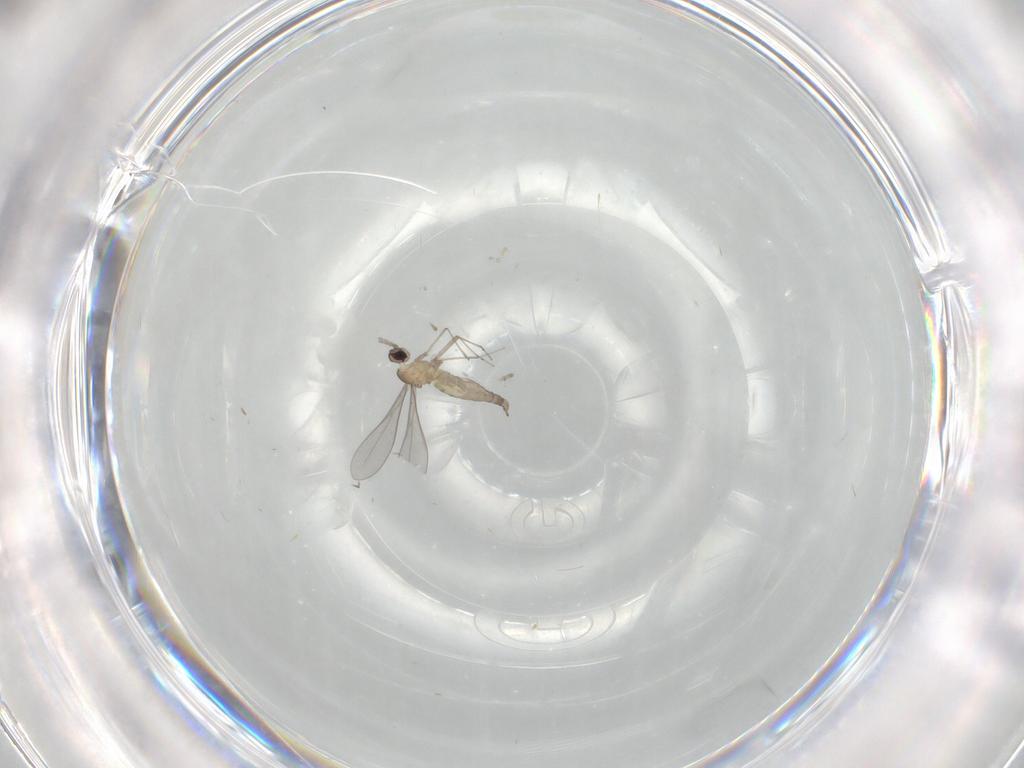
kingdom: Animalia
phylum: Arthropoda
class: Insecta
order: Diptera
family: Cecidomyiidae
